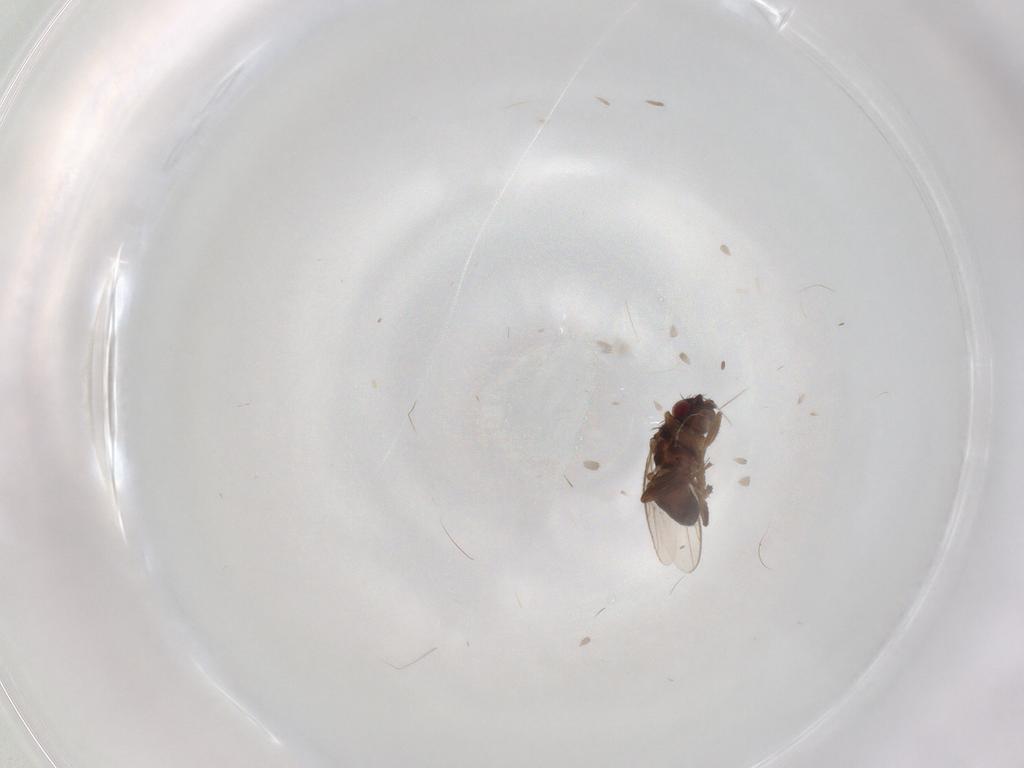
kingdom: Animalia
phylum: Arthropoda
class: Insecta
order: Diptera
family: Sphaeroceridae
